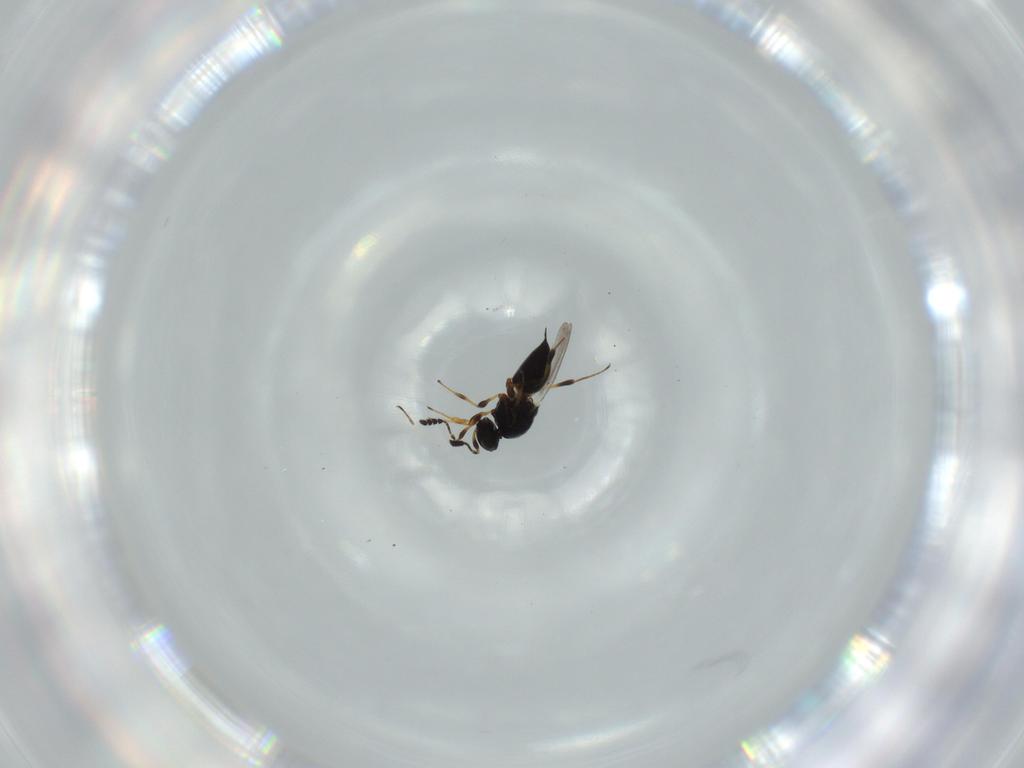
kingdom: Animalia
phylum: Arthropoda
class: Insecta
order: Hymenoptera
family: Platygastridae
